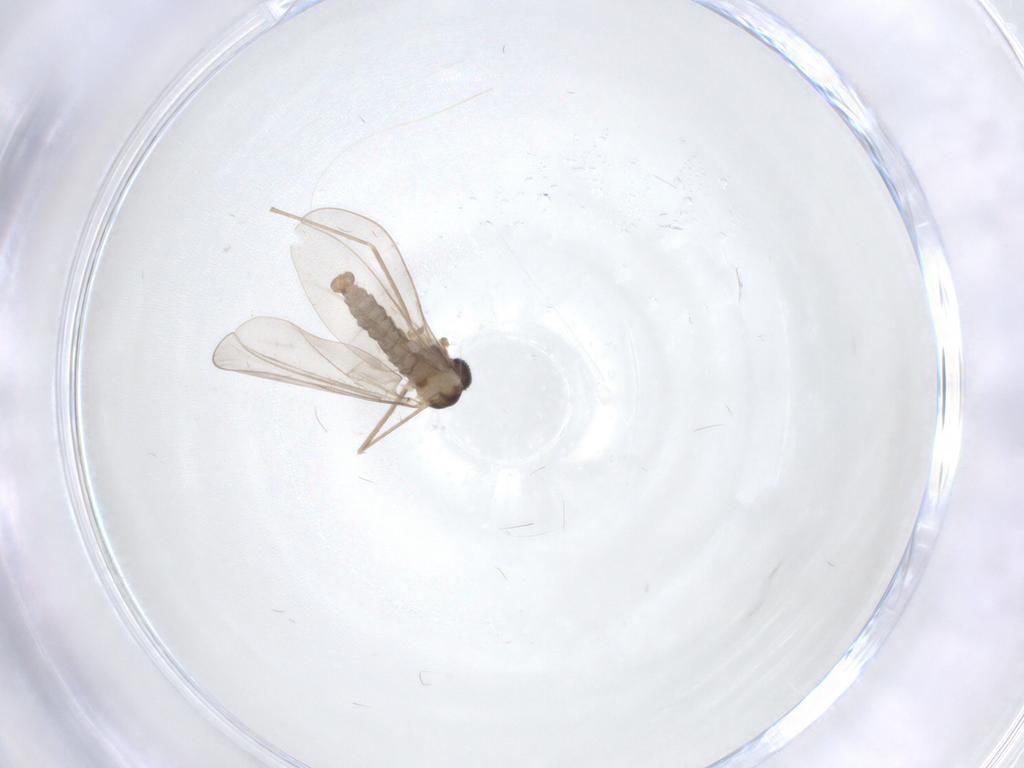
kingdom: Animalia
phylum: Arthropoda
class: Insecta
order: Diptera
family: Cecidomyiidae
